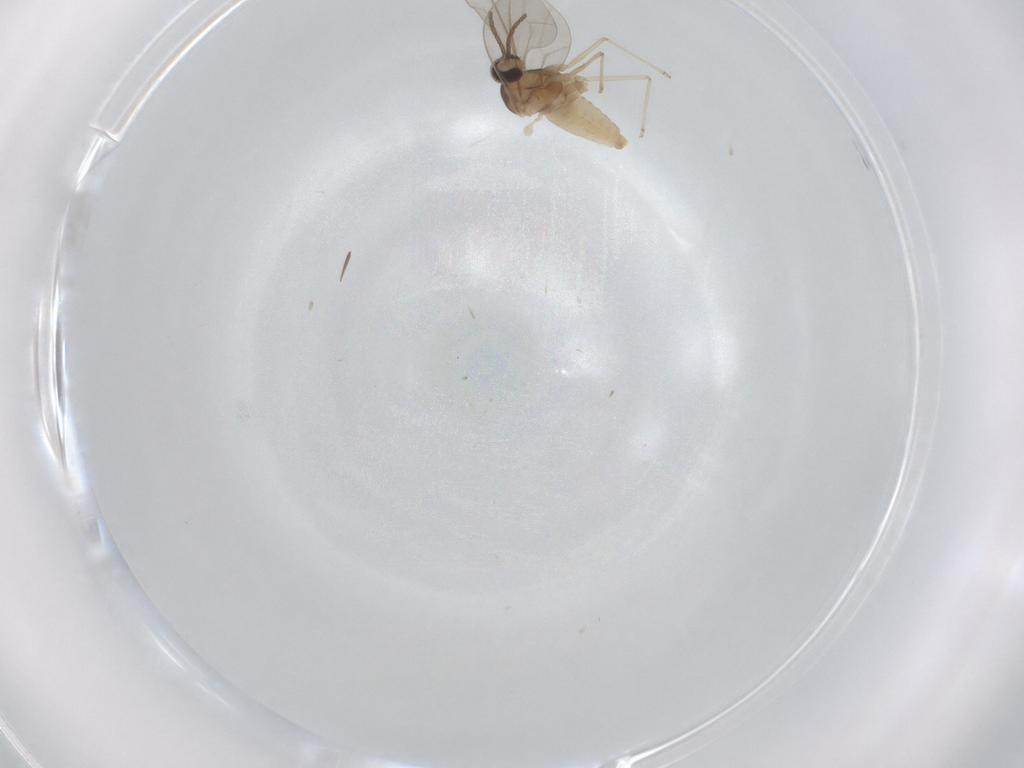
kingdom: Animalia
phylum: Arthropoda
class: Insecta
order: Diptera
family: Cecidomyiidae
